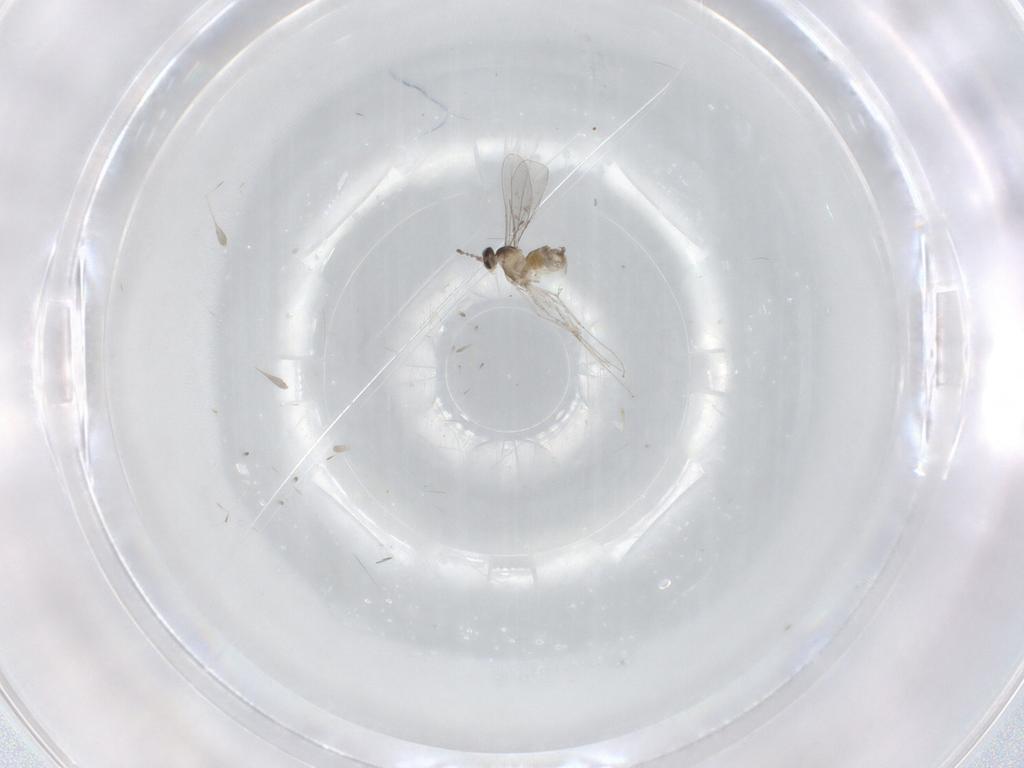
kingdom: Animalia
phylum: Arthropoda
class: Insecta
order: Diptera
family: Cecidomyiidae
